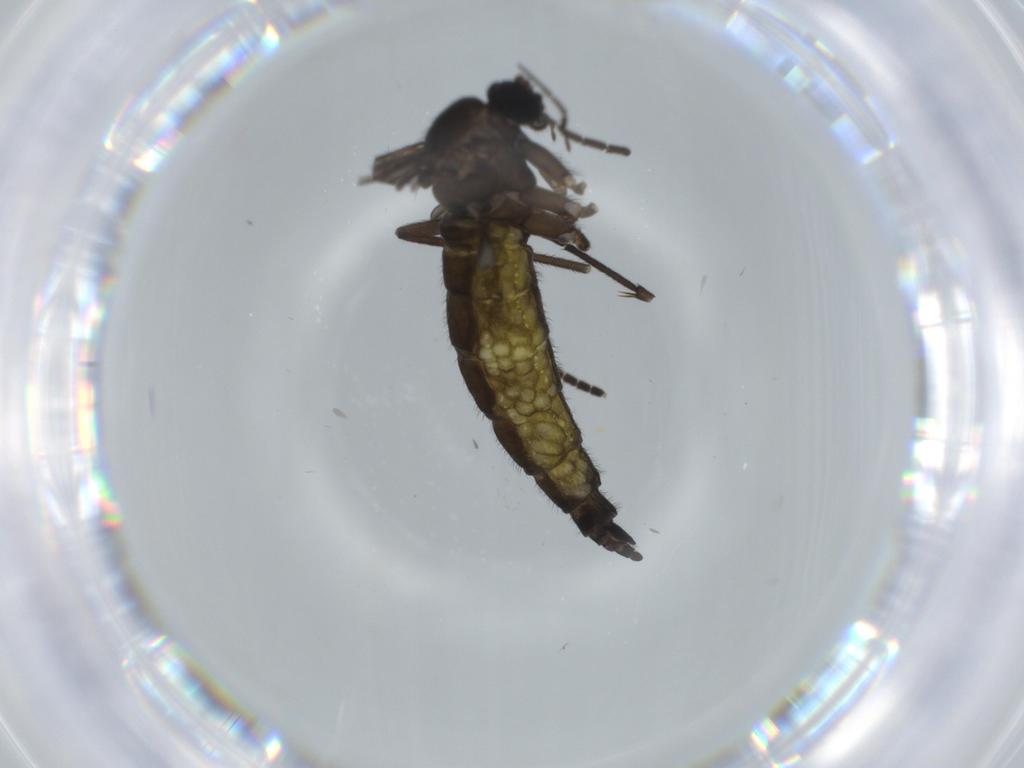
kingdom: Animalia
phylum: Arthropoda
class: Insecta
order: Diptera
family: Sciaridae
